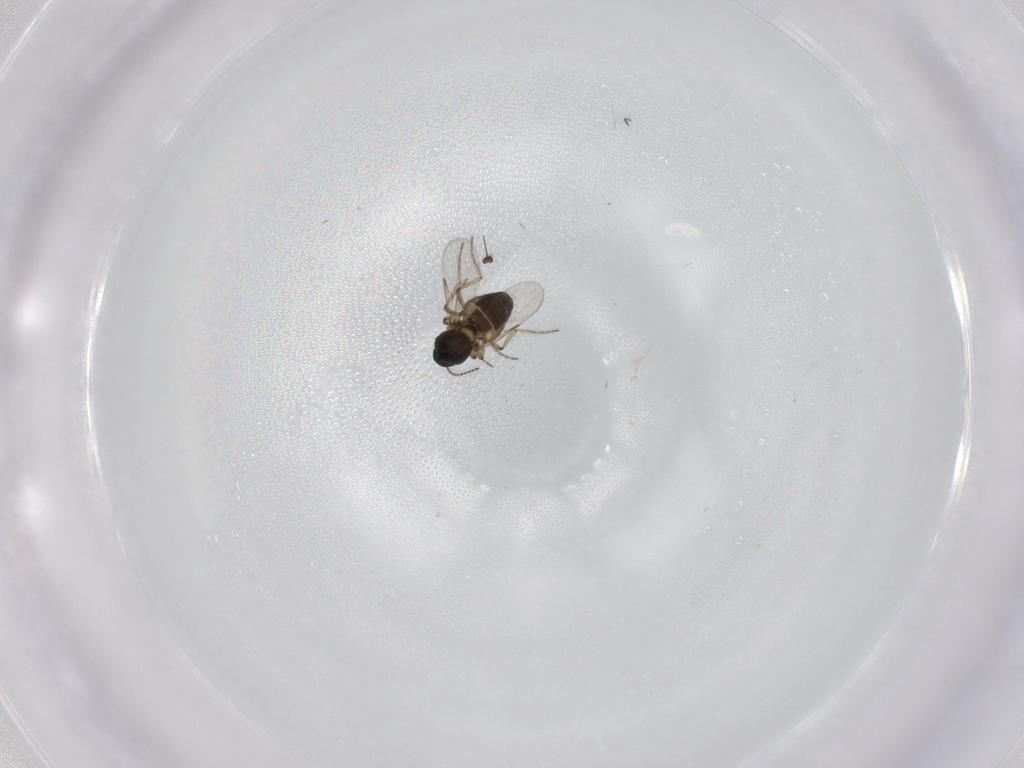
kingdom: Animalia
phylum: Arthropoda
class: Insecta
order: Diptera
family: Ceratopogonidae
